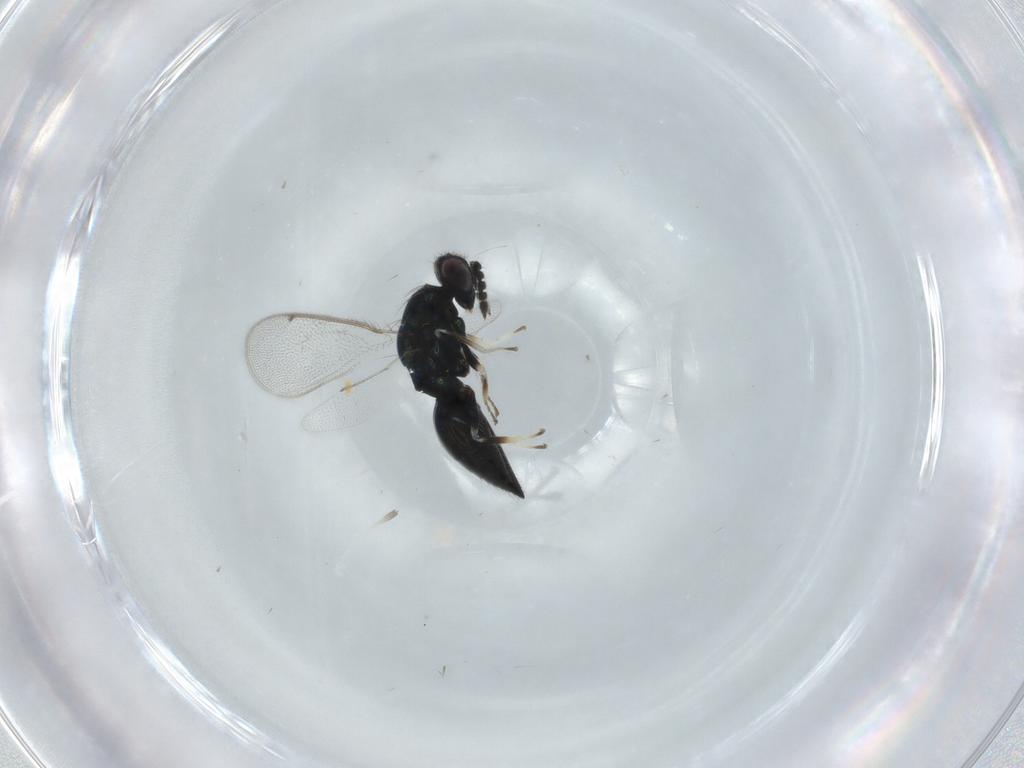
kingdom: Animalia
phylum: Arthropoda
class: Insecta
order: Hymenoptera
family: Eulophidae
